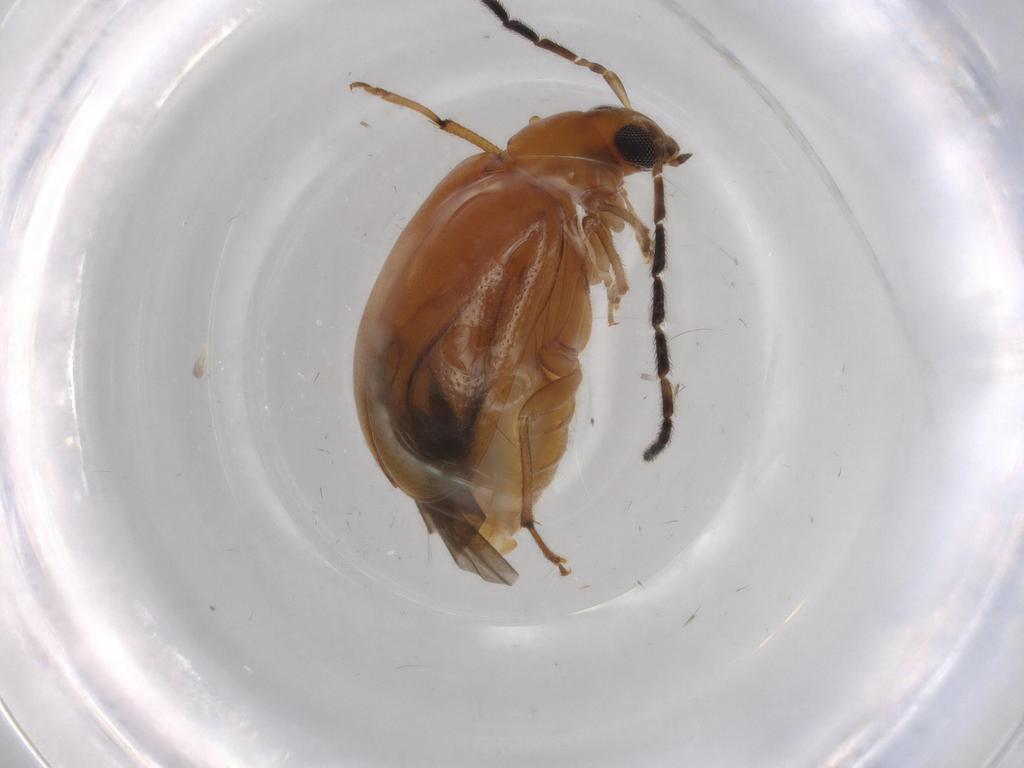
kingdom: Animalia
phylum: Arthropoda
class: Insecta
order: Coleoptera
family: Chrysomelidae
